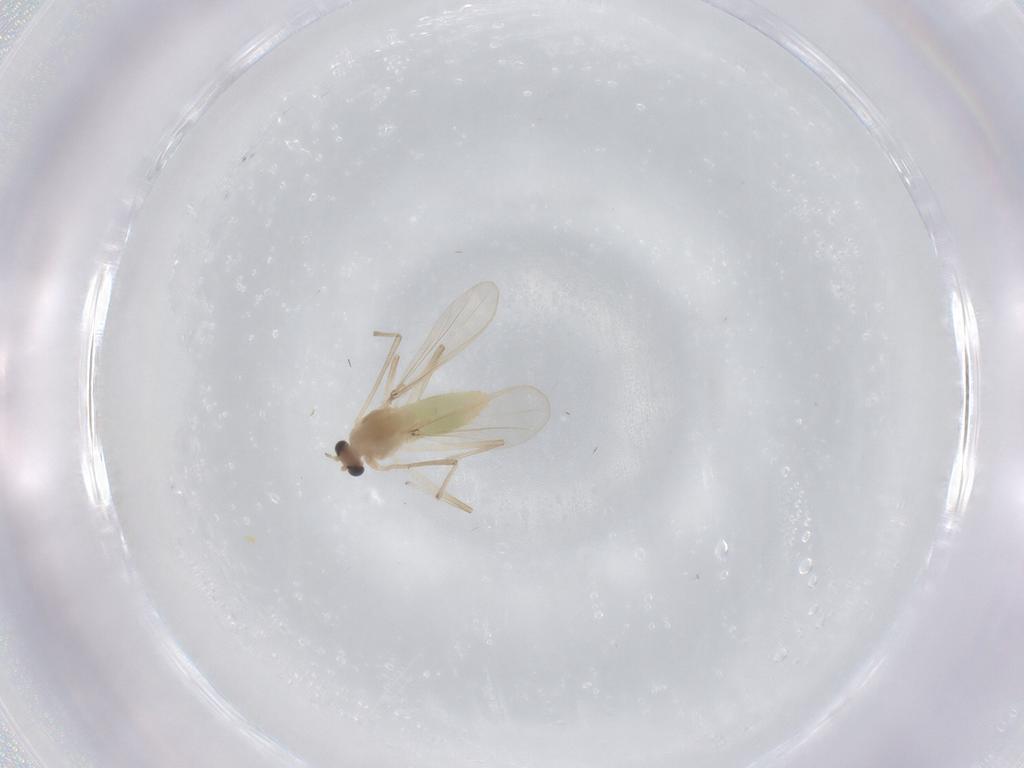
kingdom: Animalia
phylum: Arthropoda
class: Insecta
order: Diptera
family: Chironomidae
